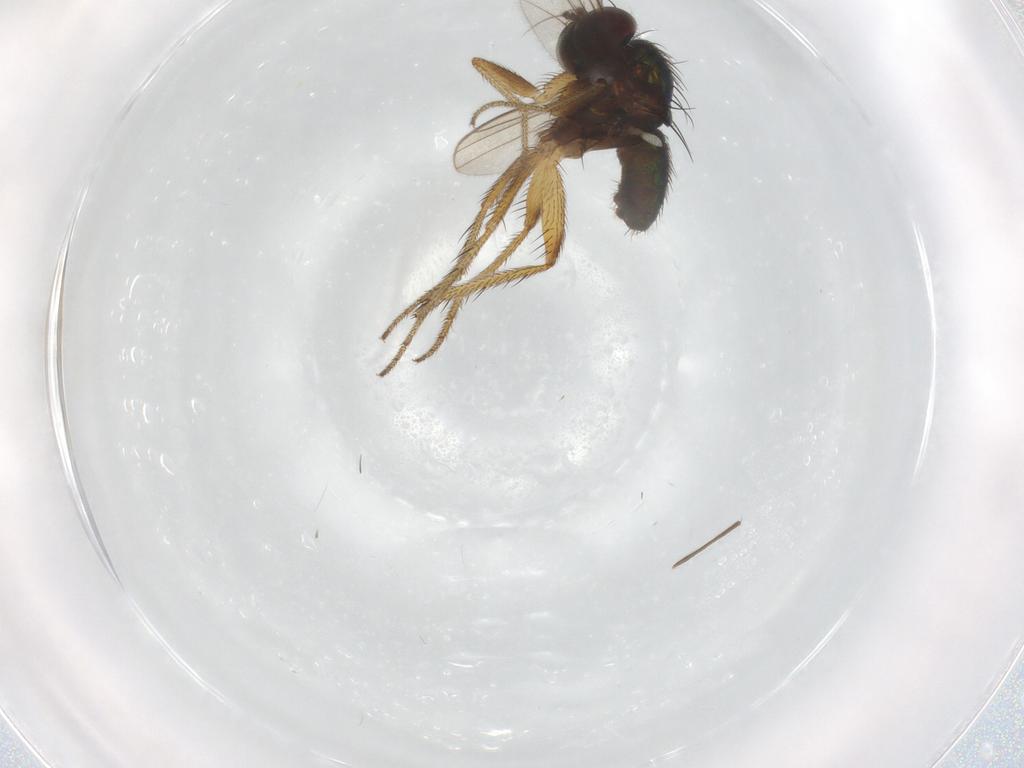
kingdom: Animalia
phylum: Arthropoda
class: Insecta
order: Diptera
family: Chironomidae
